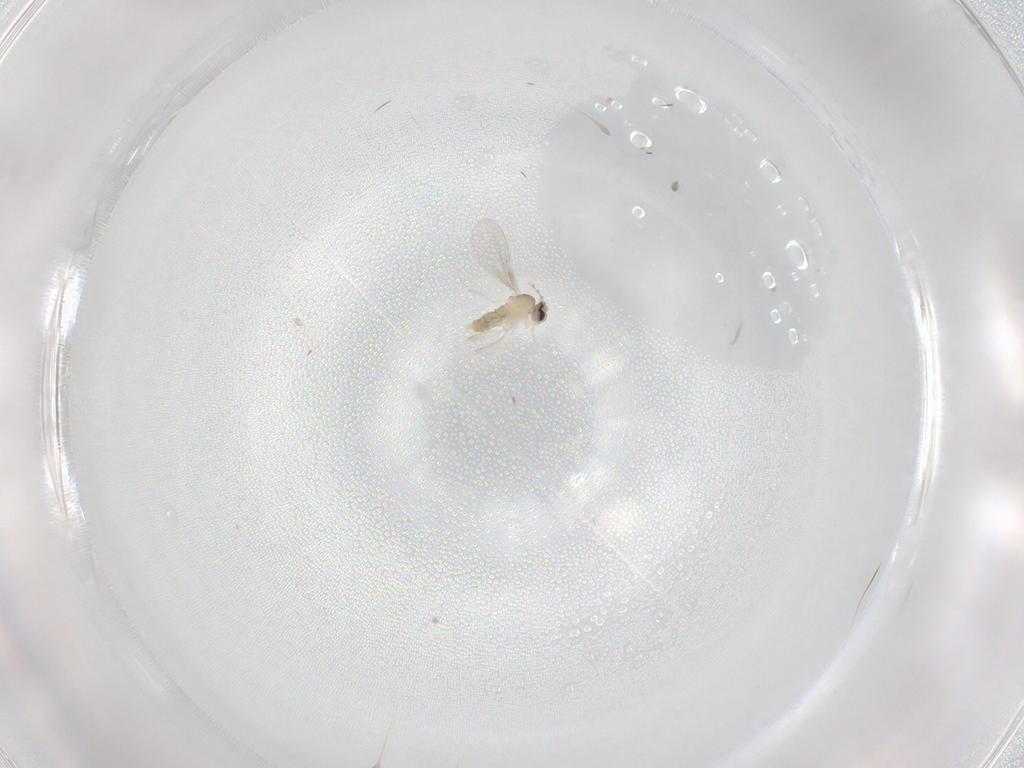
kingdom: Animalia
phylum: Arthropoda
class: Insecta
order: Diptera
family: Cecidomyiidae
